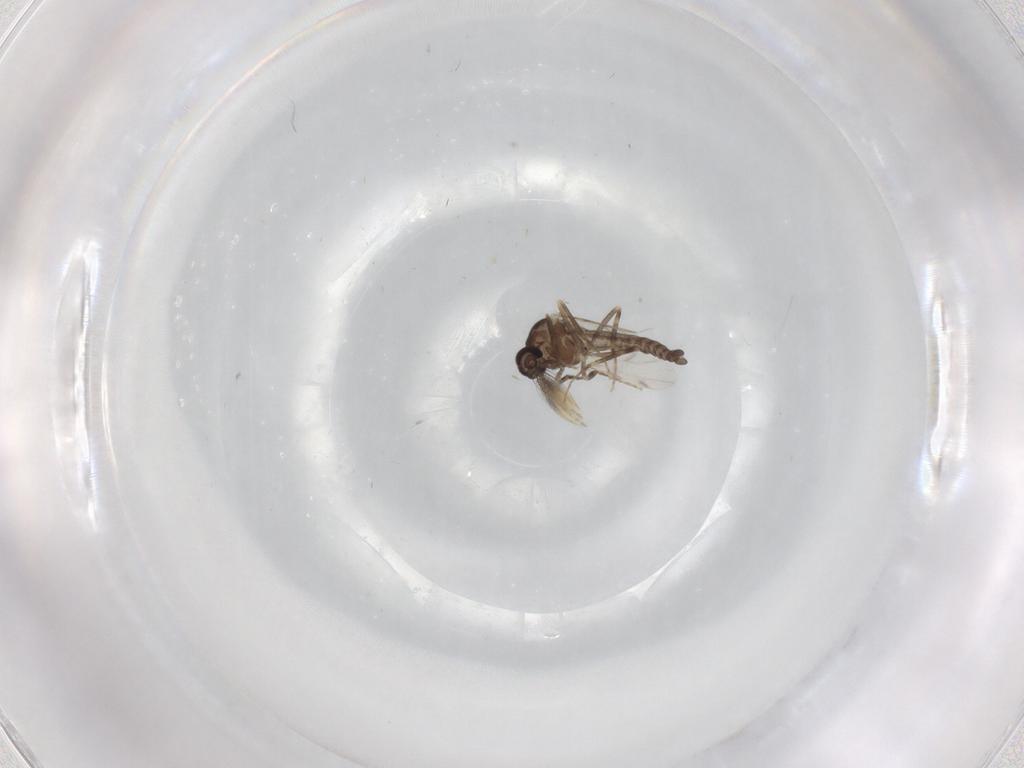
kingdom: Animalia
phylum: Arthropoda
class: Insecta
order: Diptera
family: Ceratopogonidae
